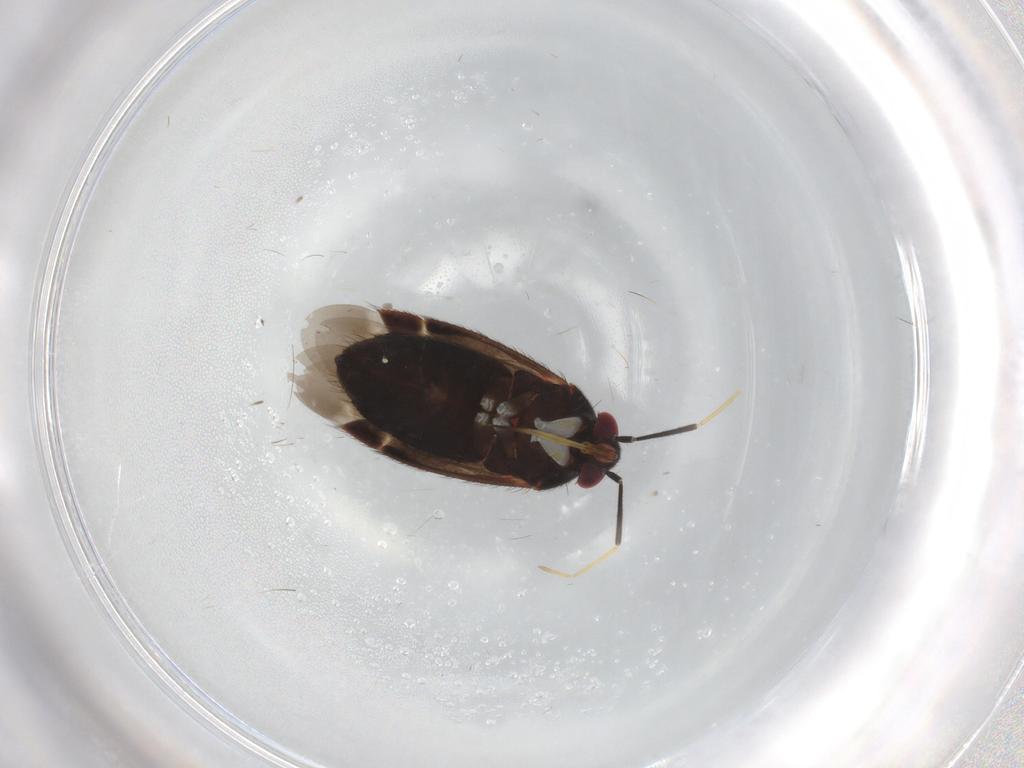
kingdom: Animalia
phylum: Arthropoda
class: Insecta
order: Hemiptera
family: Miridae
